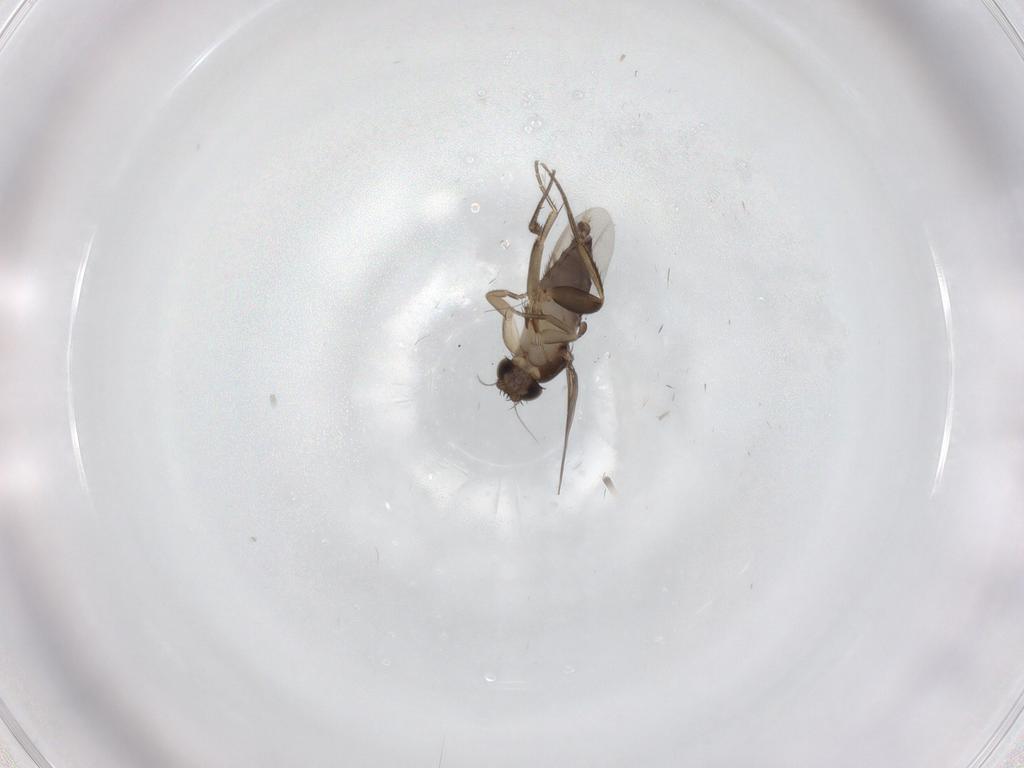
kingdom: Animalia
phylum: Arthropoda
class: Insecta
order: Diptera
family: Phoridae
